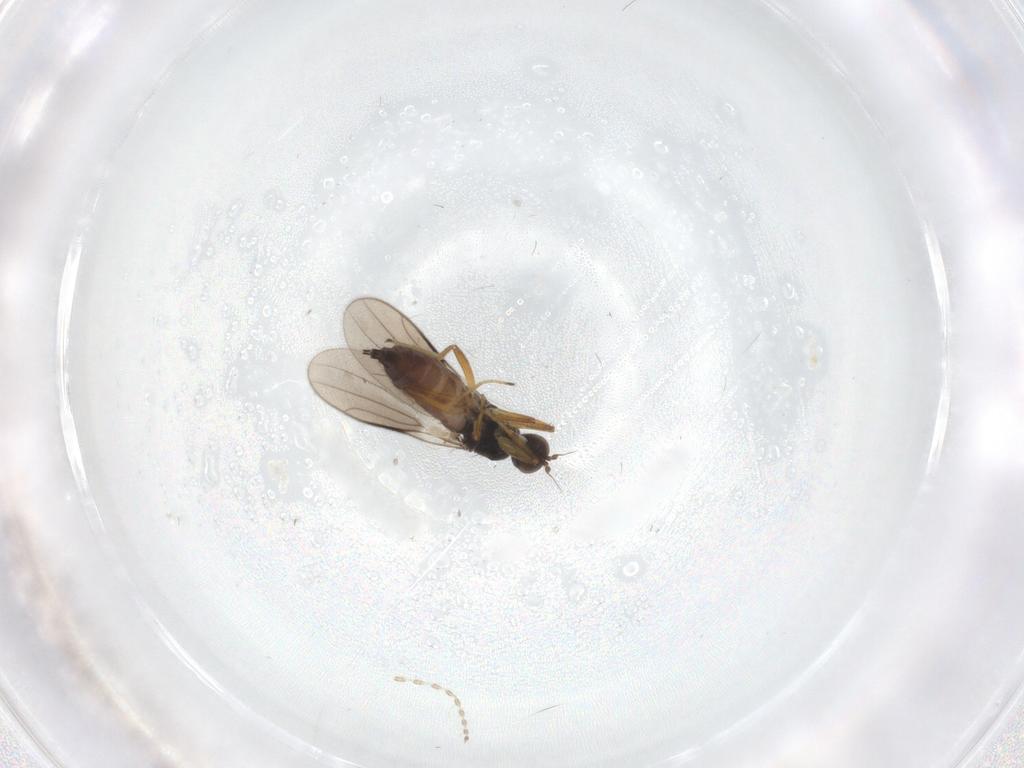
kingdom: Animalia
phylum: Arthropoda
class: Insecta
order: Diptera
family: Hybotidae
